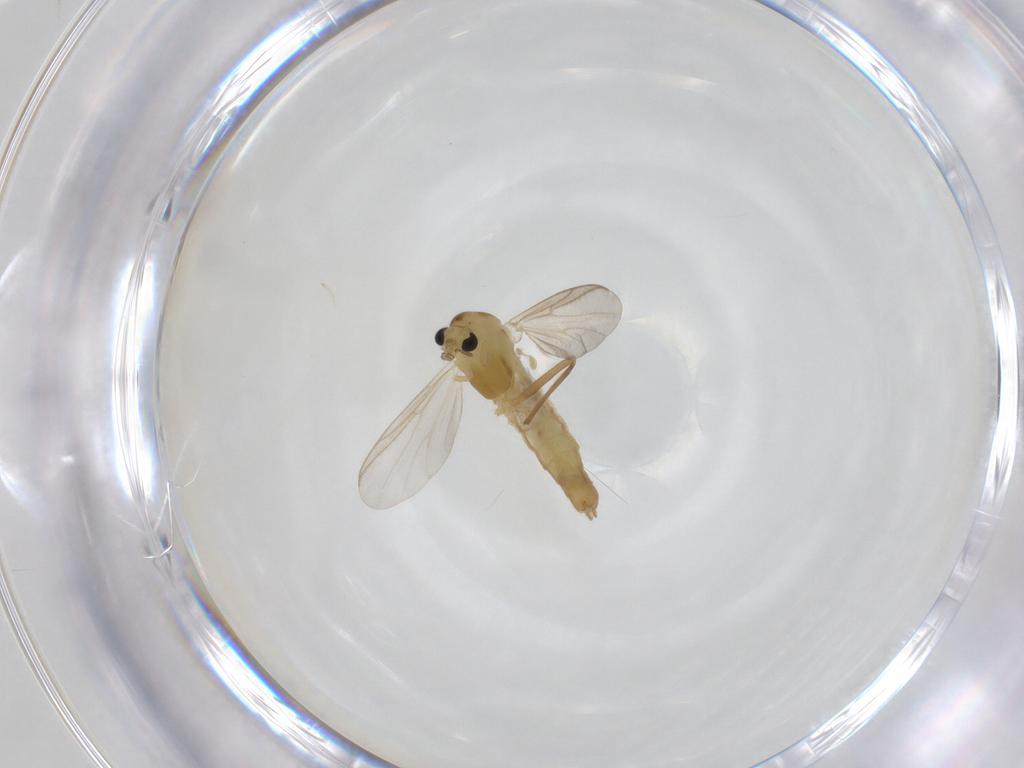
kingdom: Animalia
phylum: Arthropoda
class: Insecta
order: Diptera
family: Chironomidae
